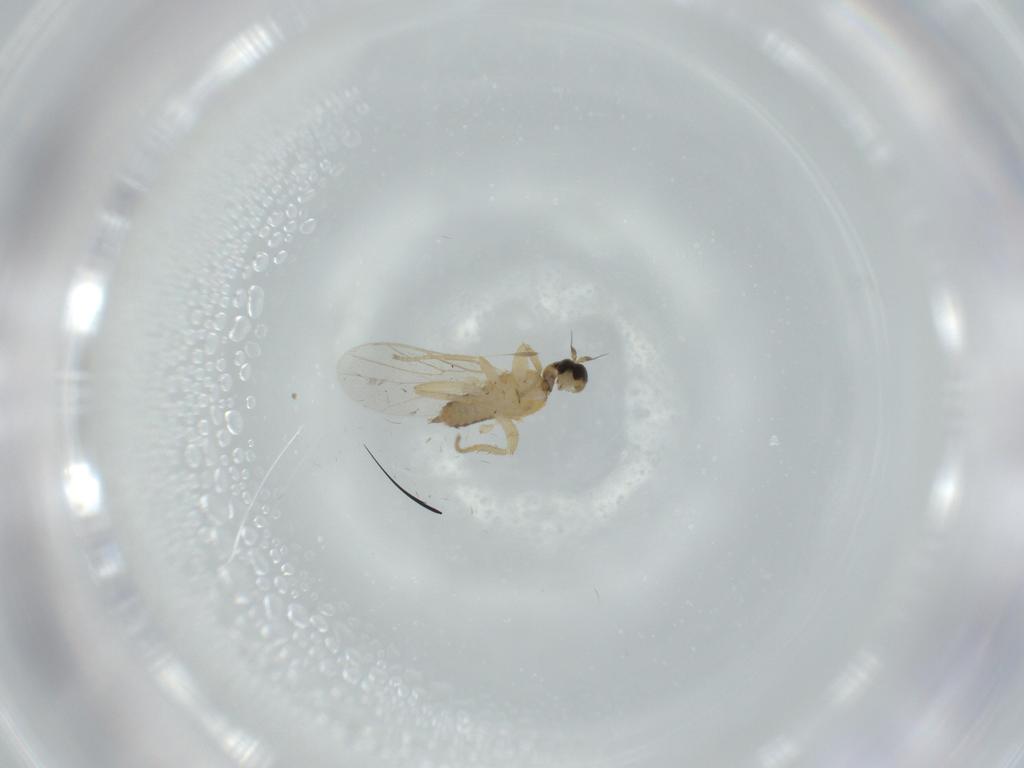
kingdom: Animalia
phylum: Arthropoda
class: Insecta
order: Diptera
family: Hybotidae
